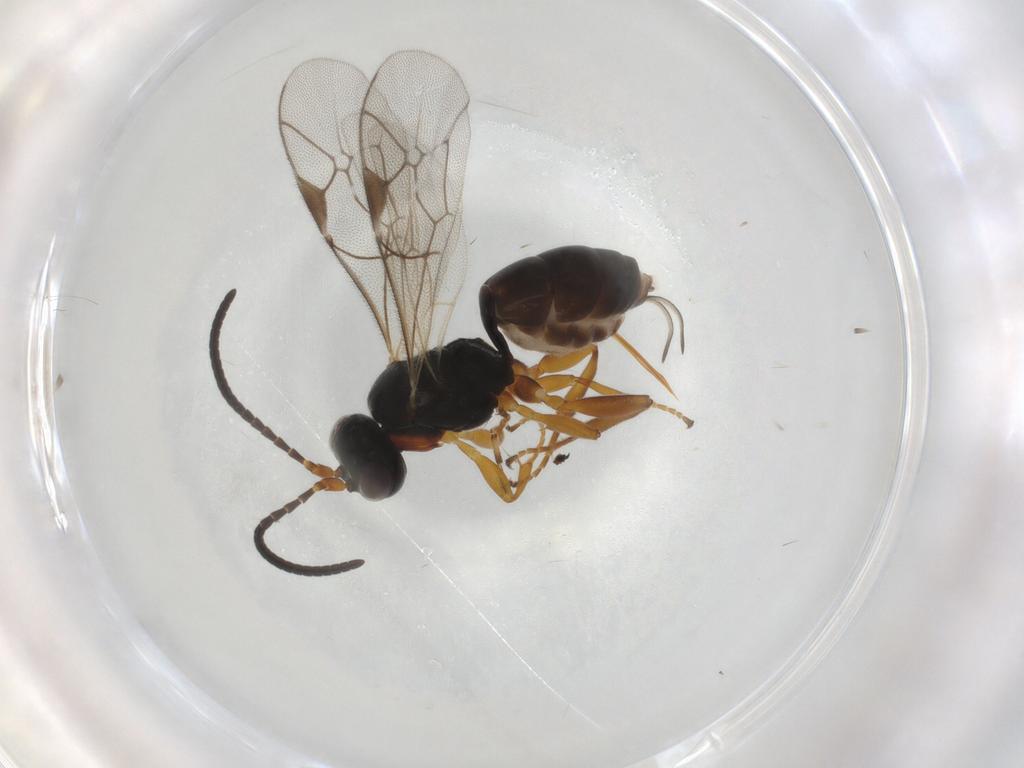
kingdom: Animalia
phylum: Arthropoda
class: Insecta
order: Hymenoptera
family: Ichneumonidae
